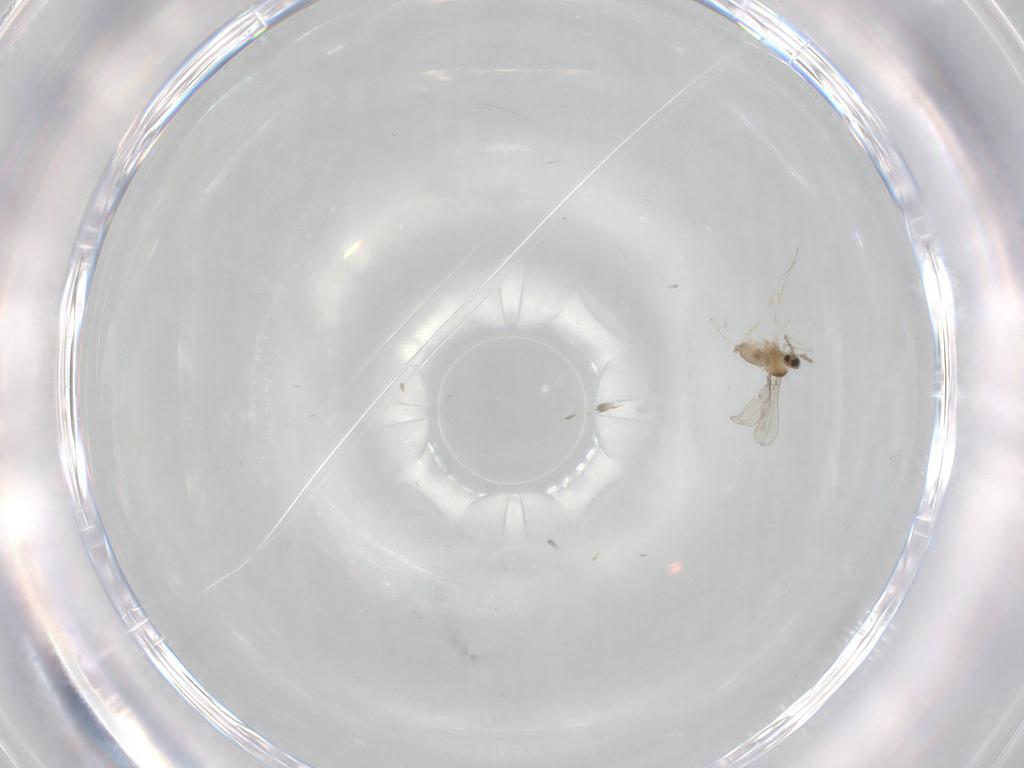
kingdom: Animalia
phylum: Arthropoda
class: Insecta
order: Diptera
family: Cecidomyiidae
